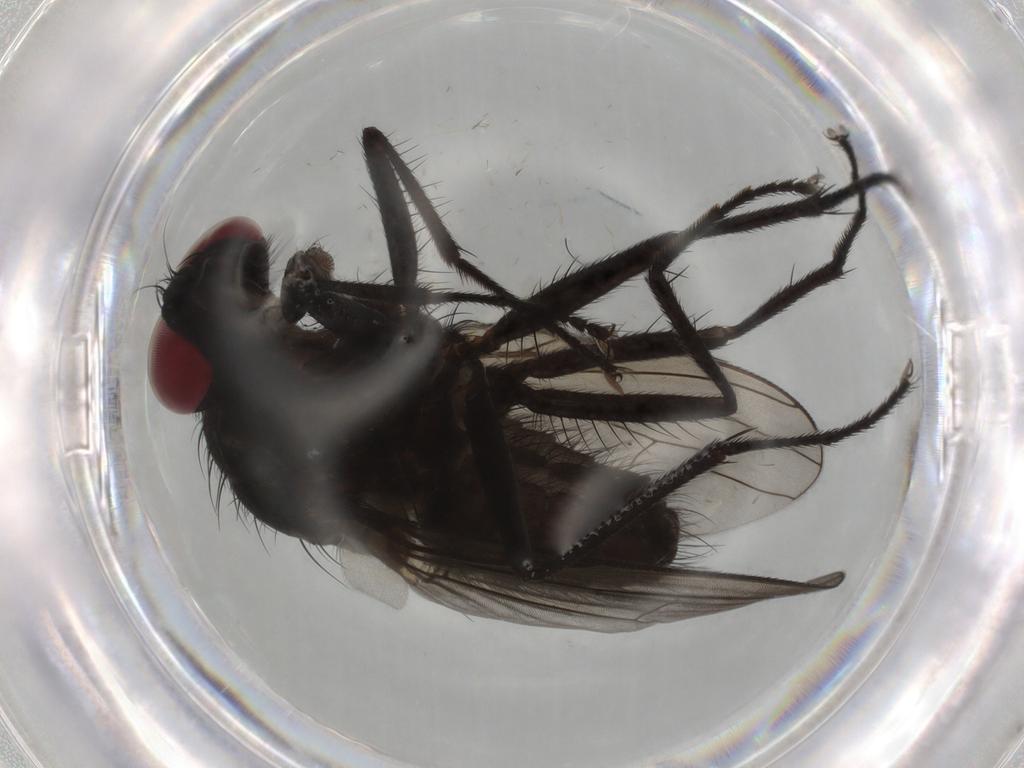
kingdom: Animalia
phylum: Arthropoda
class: Insecta
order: Diptera
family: Muscidae
